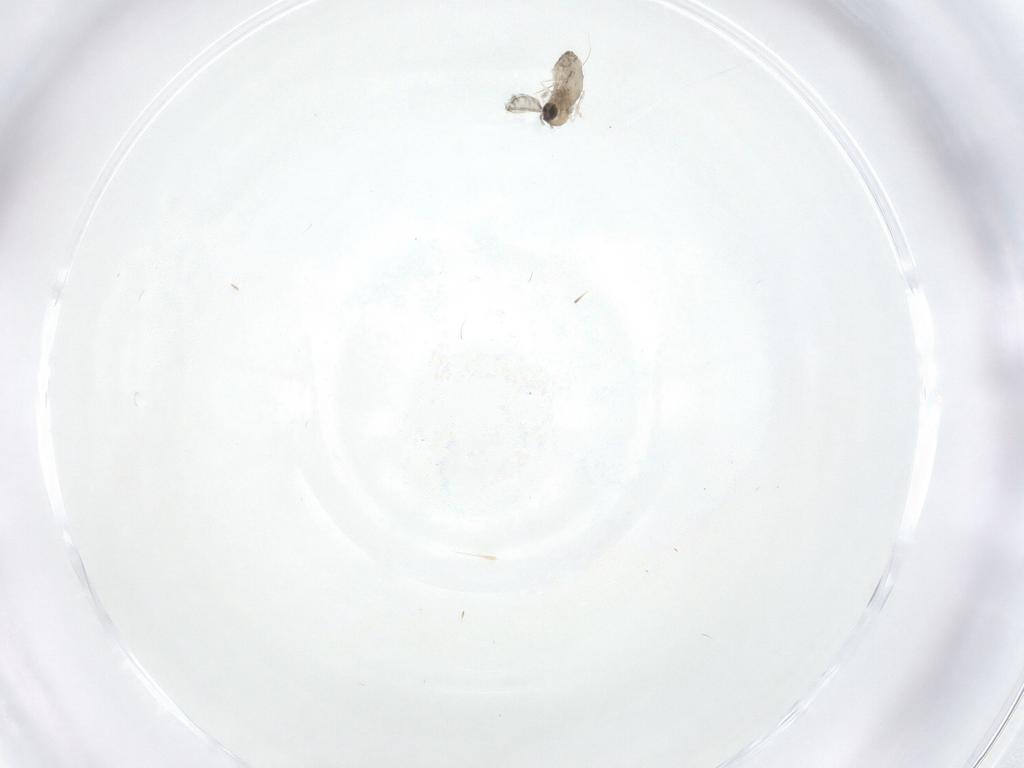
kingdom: Animalia
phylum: Arthropoda
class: Insecta
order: Diptera
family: Cecidomyiidae
